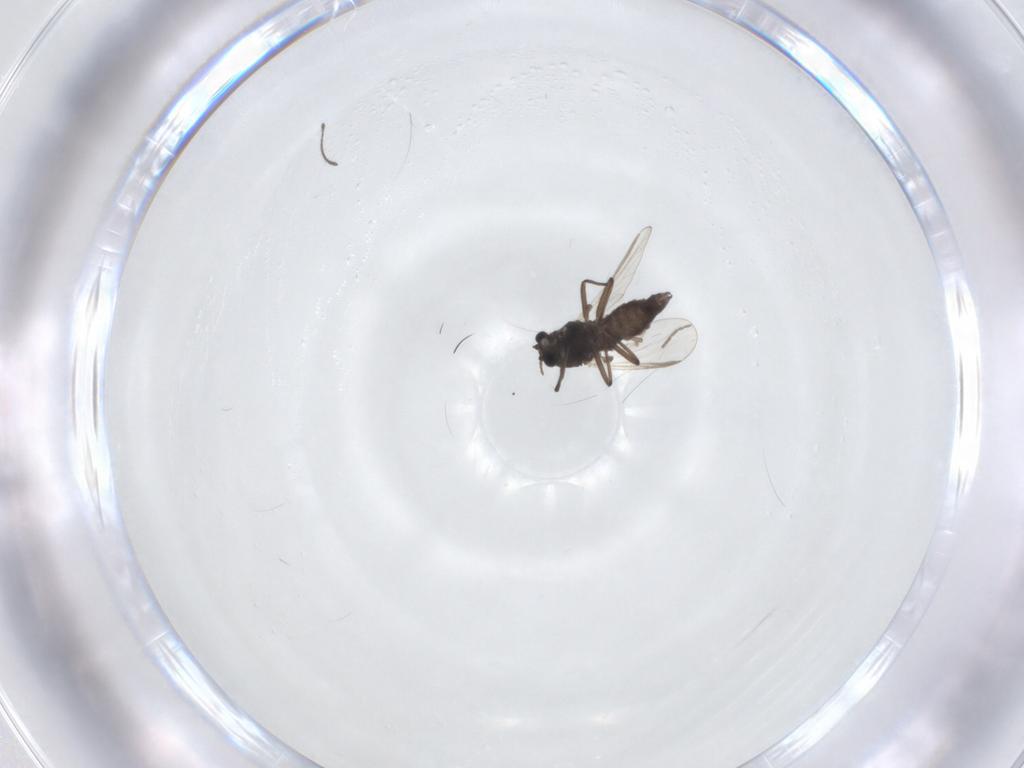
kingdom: Animalia
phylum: Arthropoda
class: Insecta
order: Diptera
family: Chironomidae
